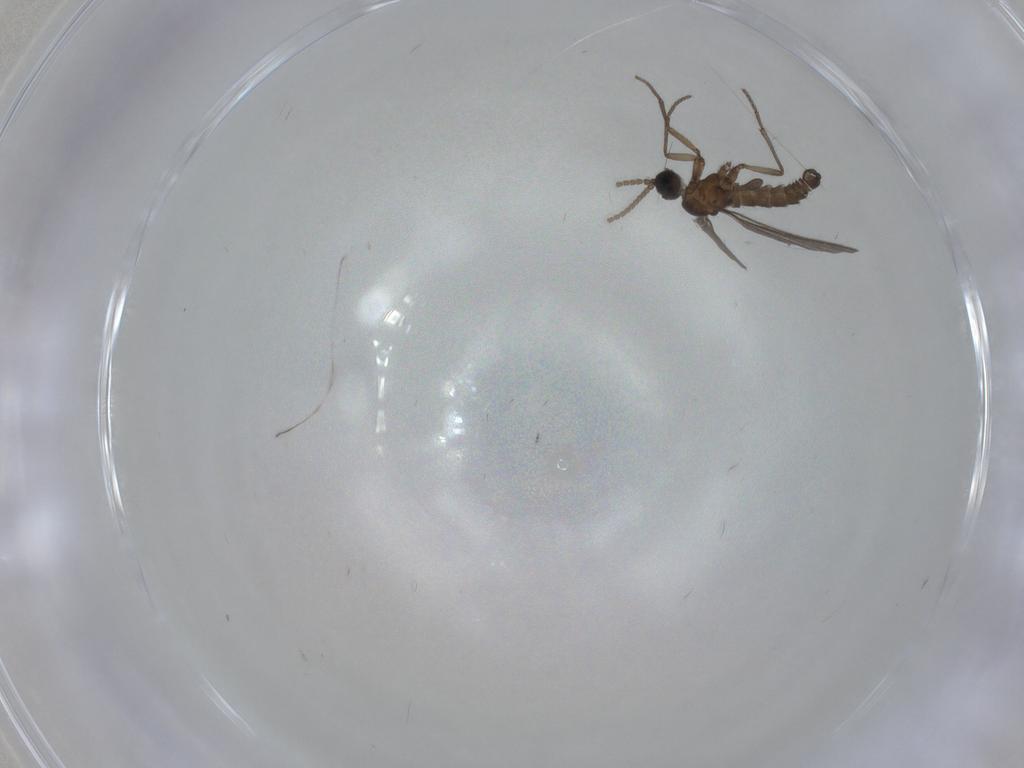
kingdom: Animalia
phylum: Arthropoda
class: Insecta
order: Diptera
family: Sciaridae
